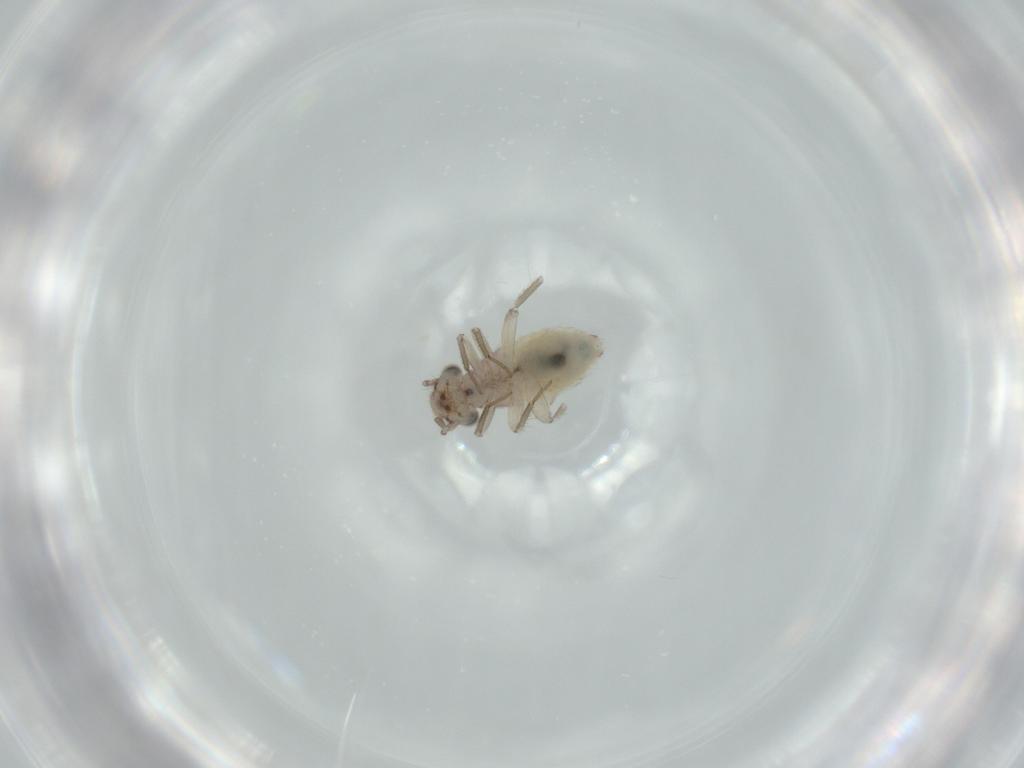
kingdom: Animalia
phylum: Arthropoda
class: Insecta
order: Psocodea
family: Lepidopsocidae
